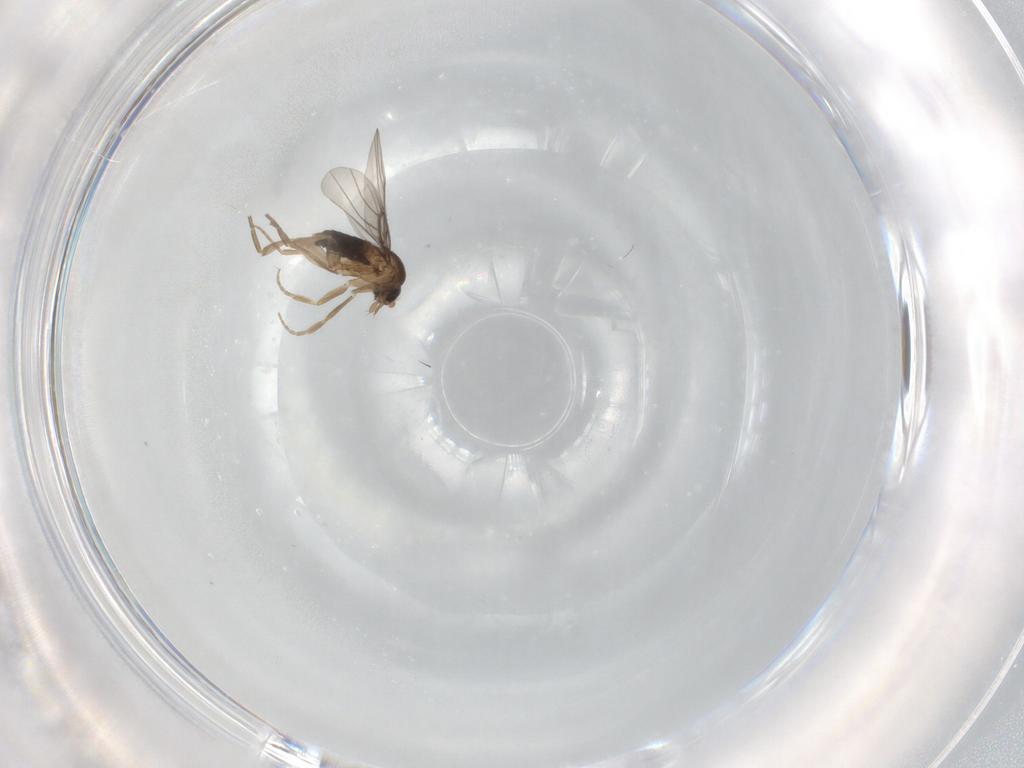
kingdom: Animalia
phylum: Arthropoda
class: Insecta
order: Diptera
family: Phoridae
